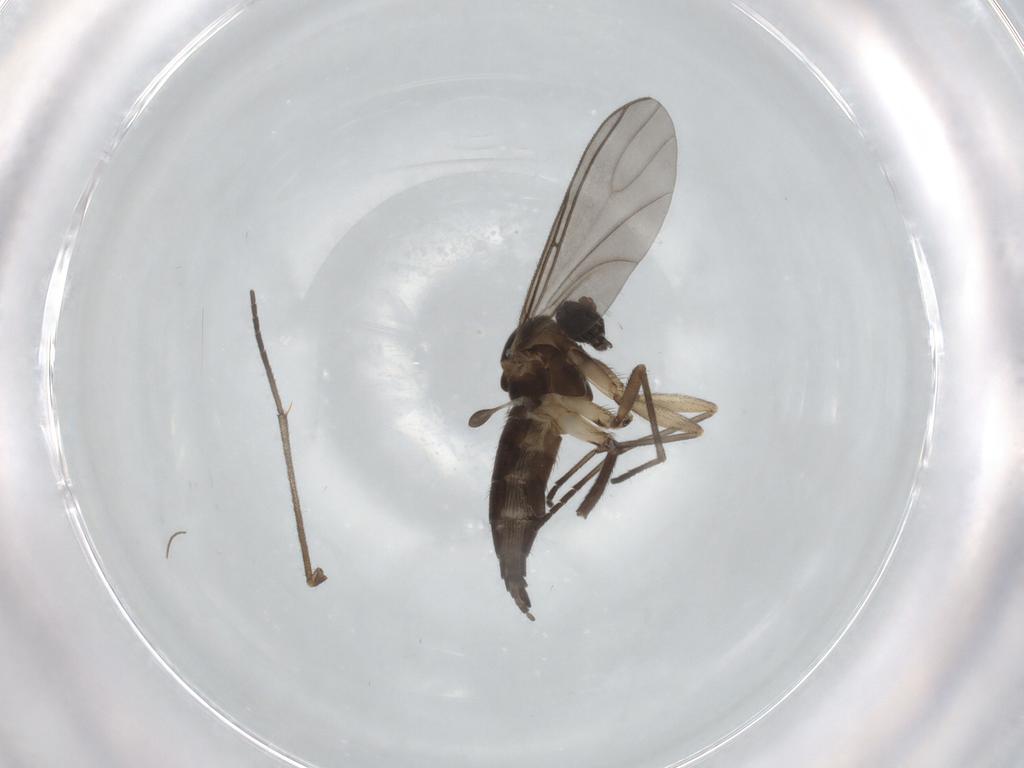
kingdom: Animalia
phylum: Arthropoda
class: Insecta
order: Diptera
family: Sciaridae
